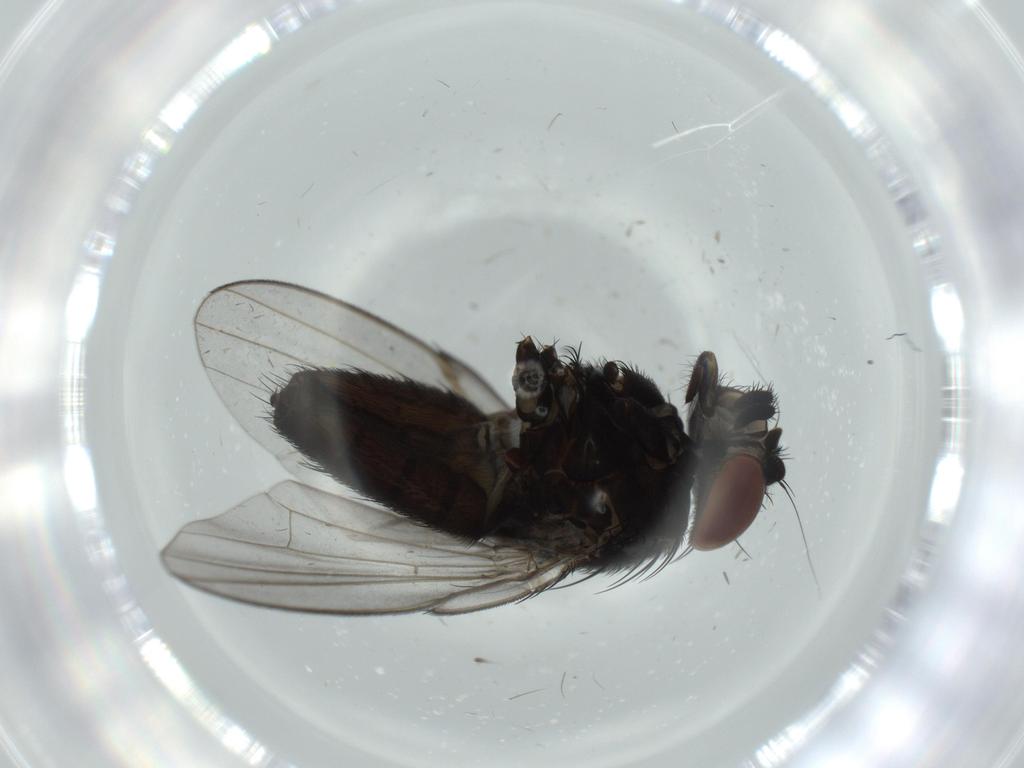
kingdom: Animalia
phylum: Arthropoda
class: Insecta
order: Diptera
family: Milichiidae
